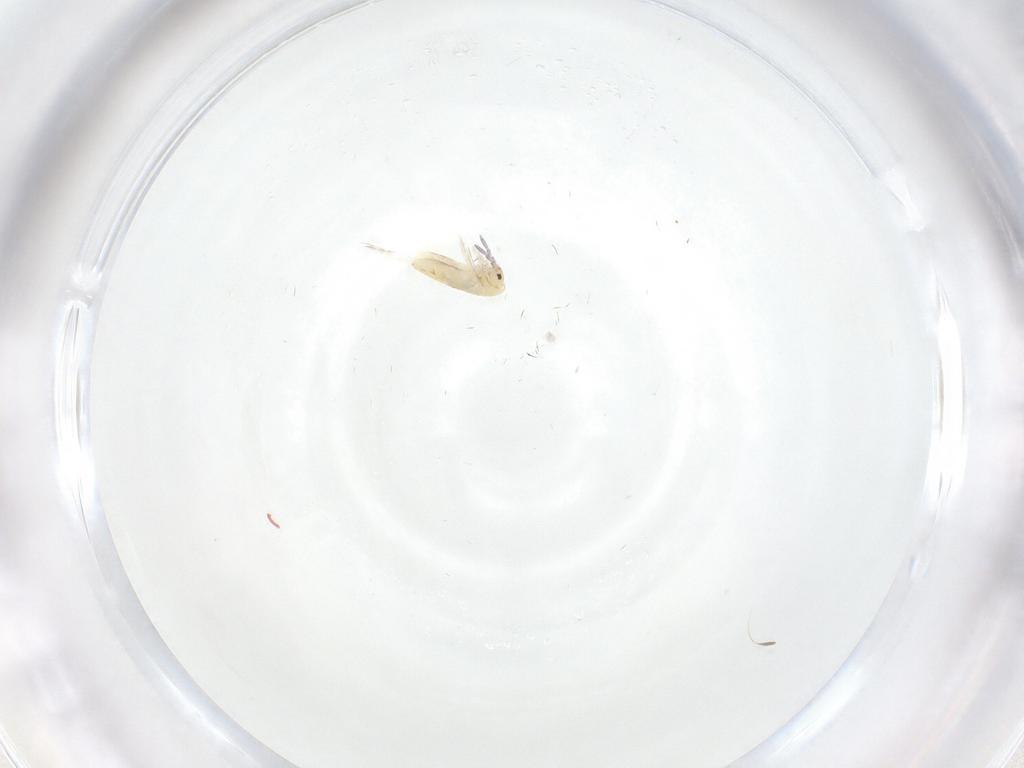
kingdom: Animalia
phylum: Arthropoda
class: Collembola
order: Entomobryomorpha
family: Entomobryidae
